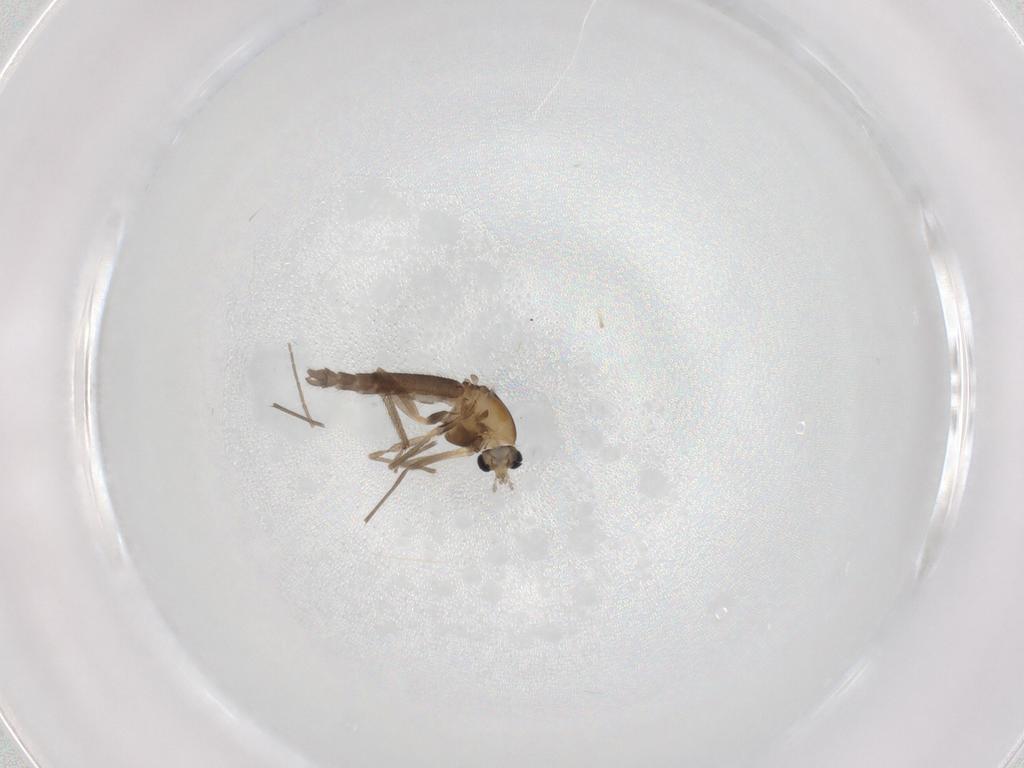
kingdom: Animalia
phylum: Arthropoda
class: Insecta
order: Diptera
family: Chironomidae
